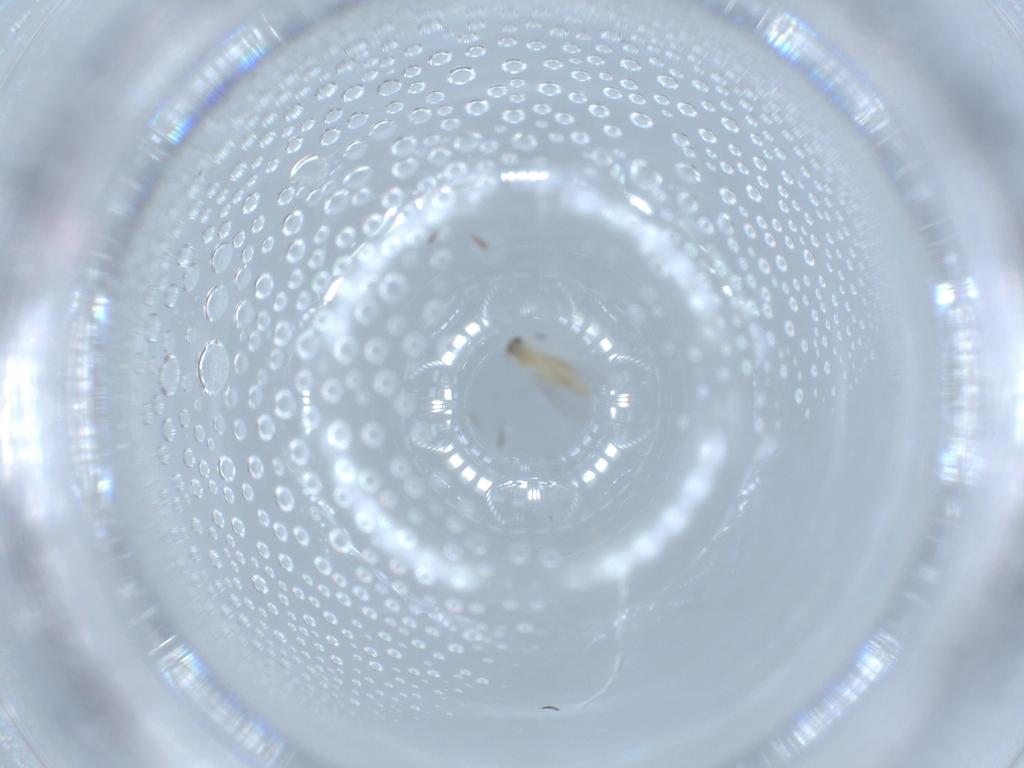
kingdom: Animalia
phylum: Arthropoda
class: Insecta
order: Diptera
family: Cecidomyiidae
